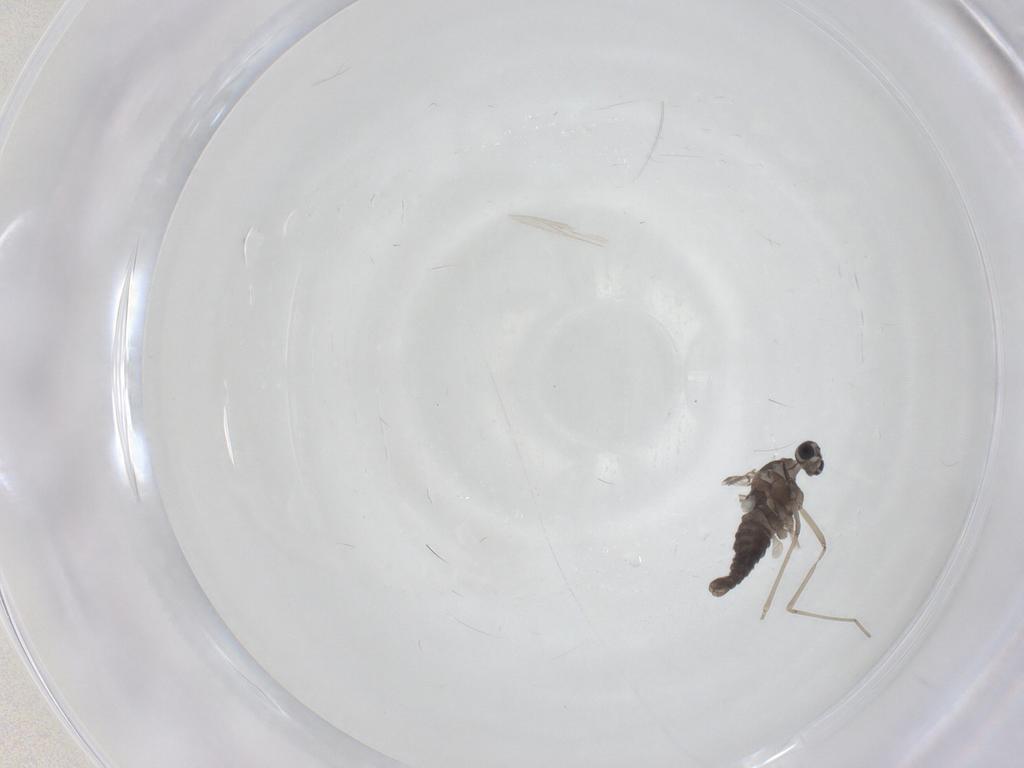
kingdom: Animalia
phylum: Arthropoda
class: Insecta
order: Diptera
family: Cecidomyiidae
